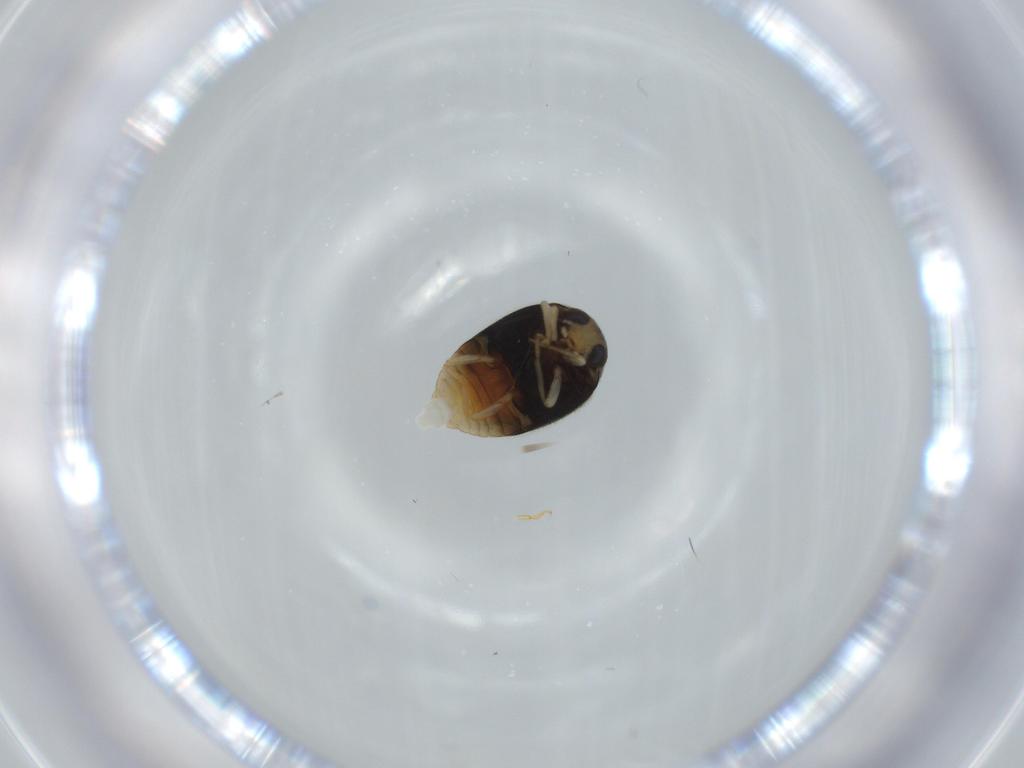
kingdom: Animalia
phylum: Arthropoda
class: Insecta
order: Coleoptera
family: Coccinellidae
